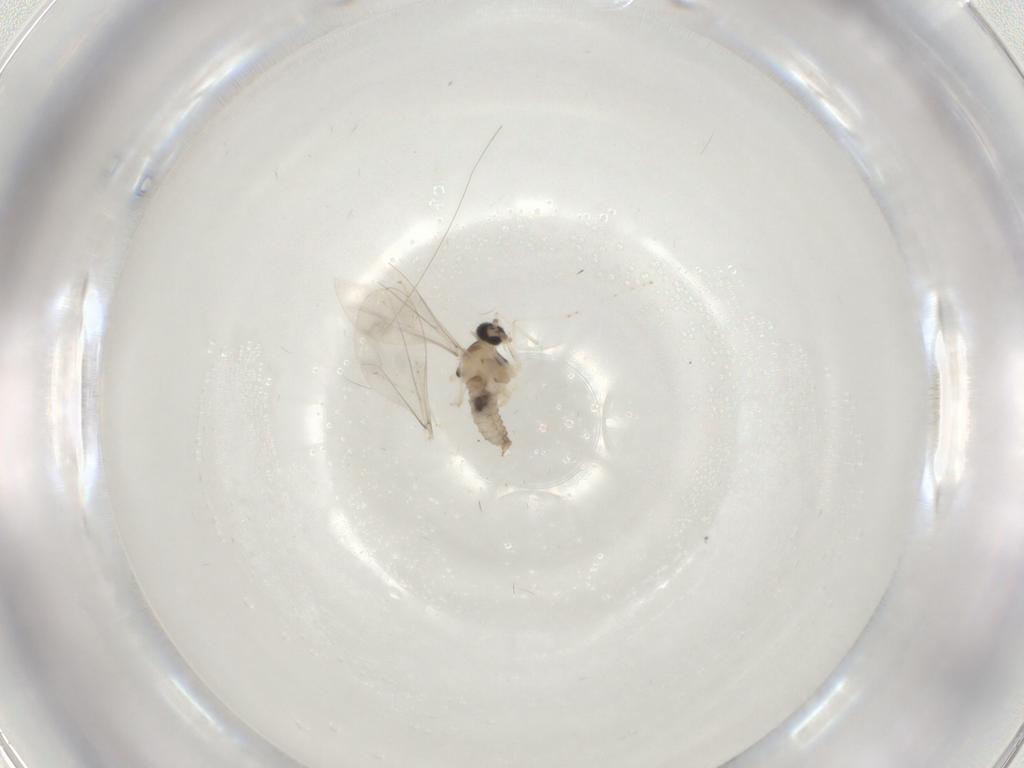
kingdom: Animalia
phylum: Arthropoda
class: Insecta
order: Diptera
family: Cecidomyiidae
